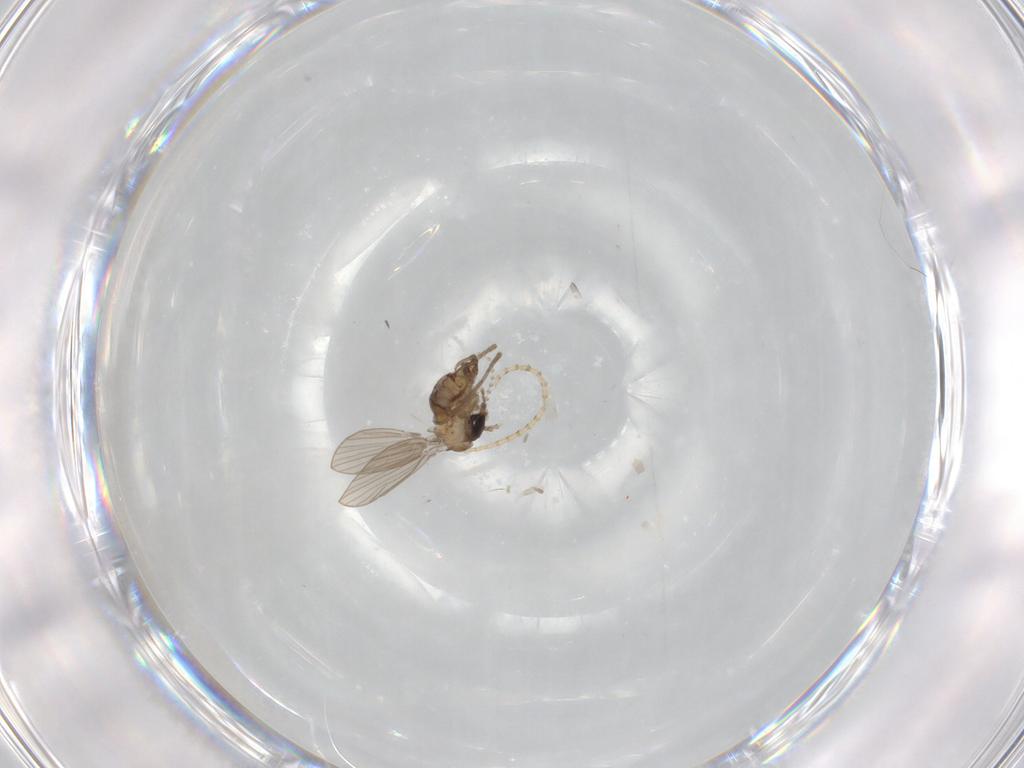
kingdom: Animalia
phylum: Arthropoda
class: Insecta
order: Diptera
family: Psychodidae
